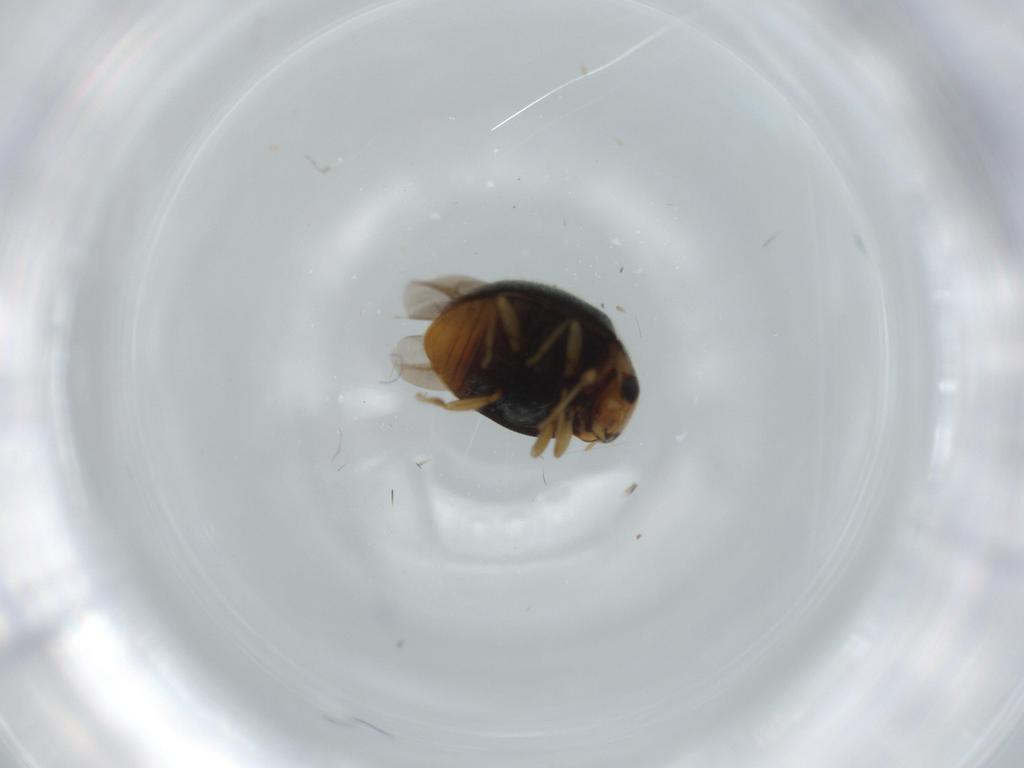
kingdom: Animalia
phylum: Arthropoda
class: Insecta
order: Coleoptera
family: Curculionidae
